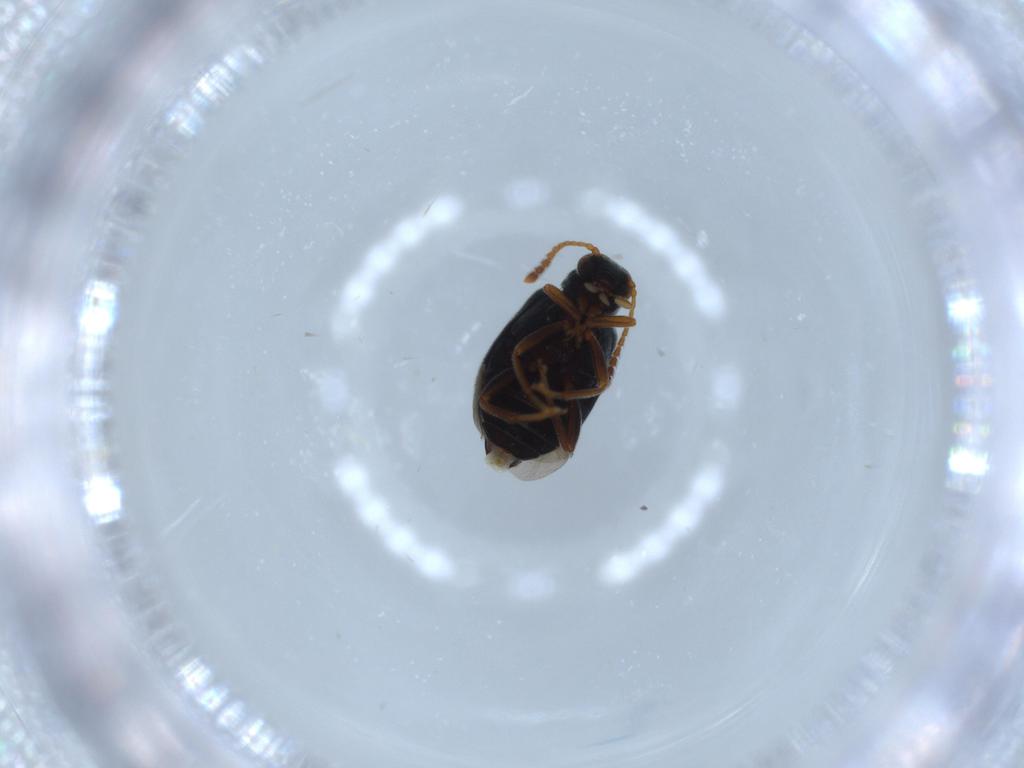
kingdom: Animalia
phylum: Arthropoda
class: Insecta
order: Coleoptera
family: Aderidae
